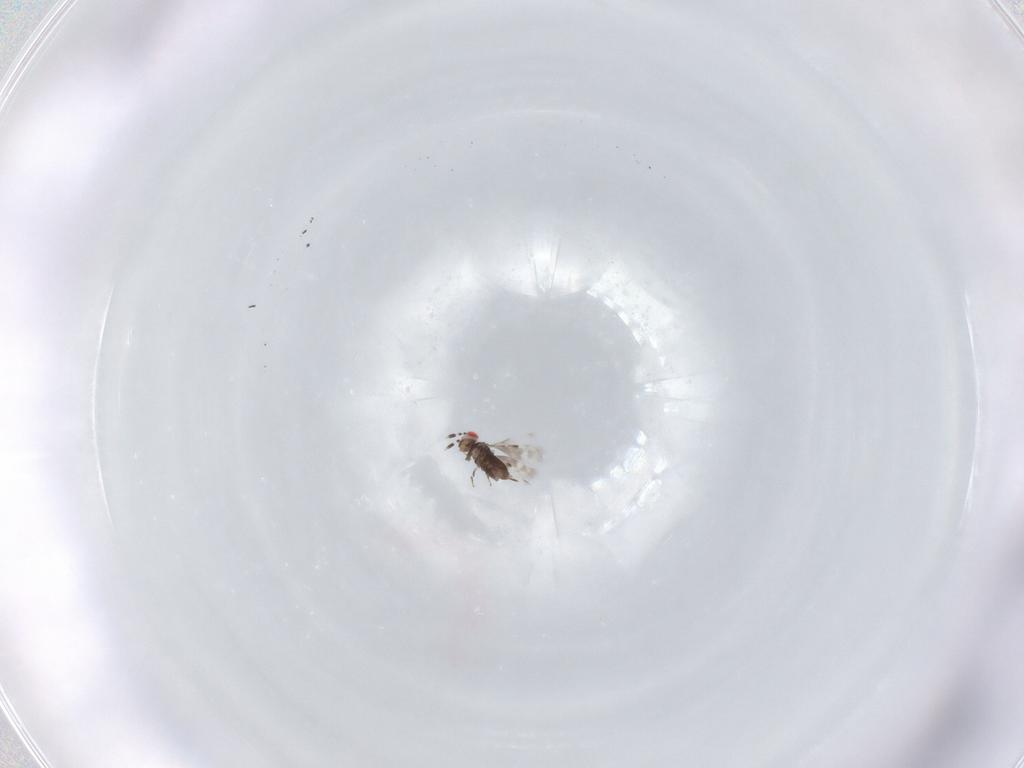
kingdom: Animalia
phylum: Arthropoda
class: Insecta
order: Hymenoptera
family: Azotidae
